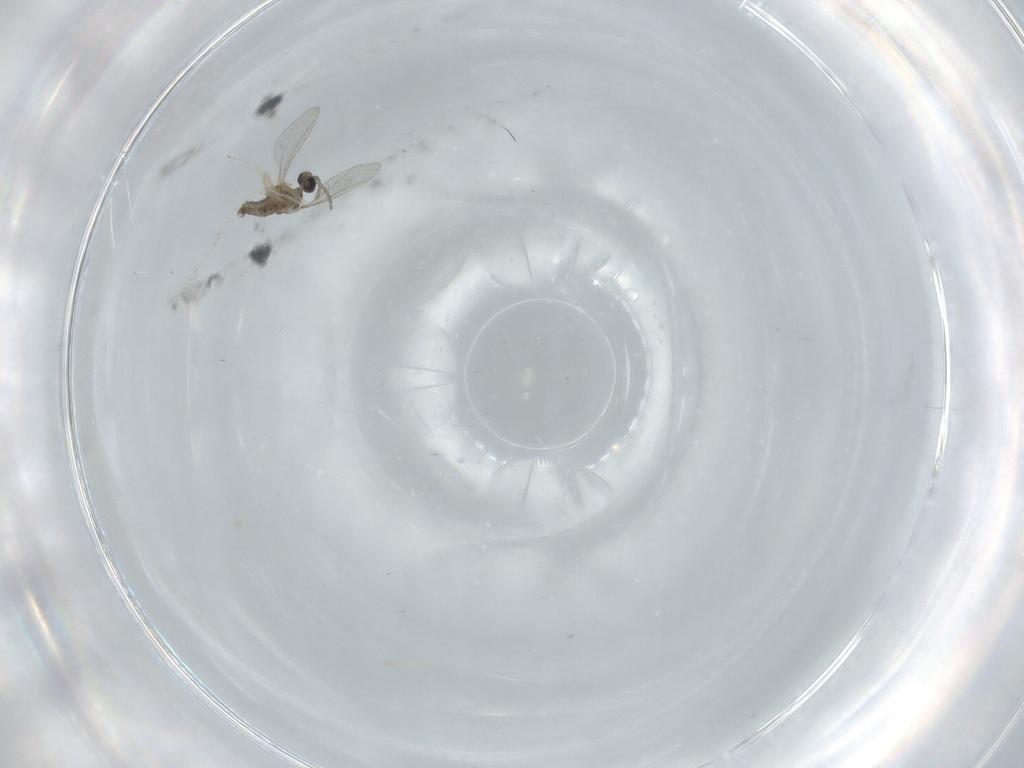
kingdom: Animalia
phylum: Arthropoda
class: Insecta
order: Diptera
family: Cecidomyiidae
